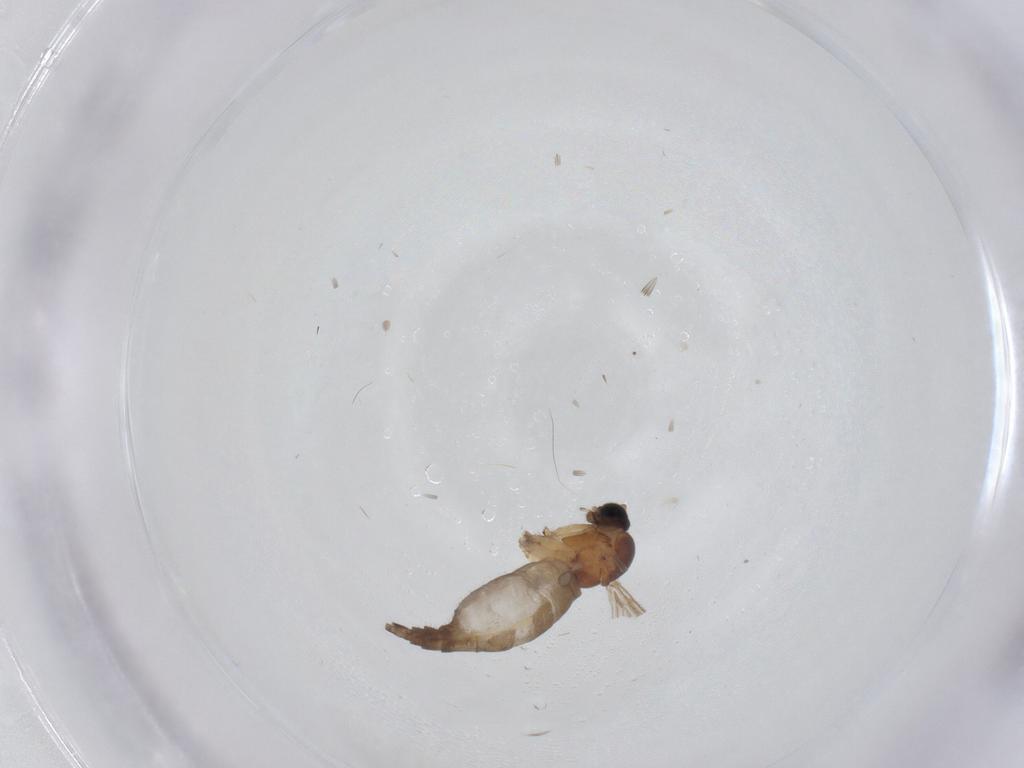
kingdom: Animalia
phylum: Arthropoda
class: Insecta
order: Diptera
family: Sciaridae
